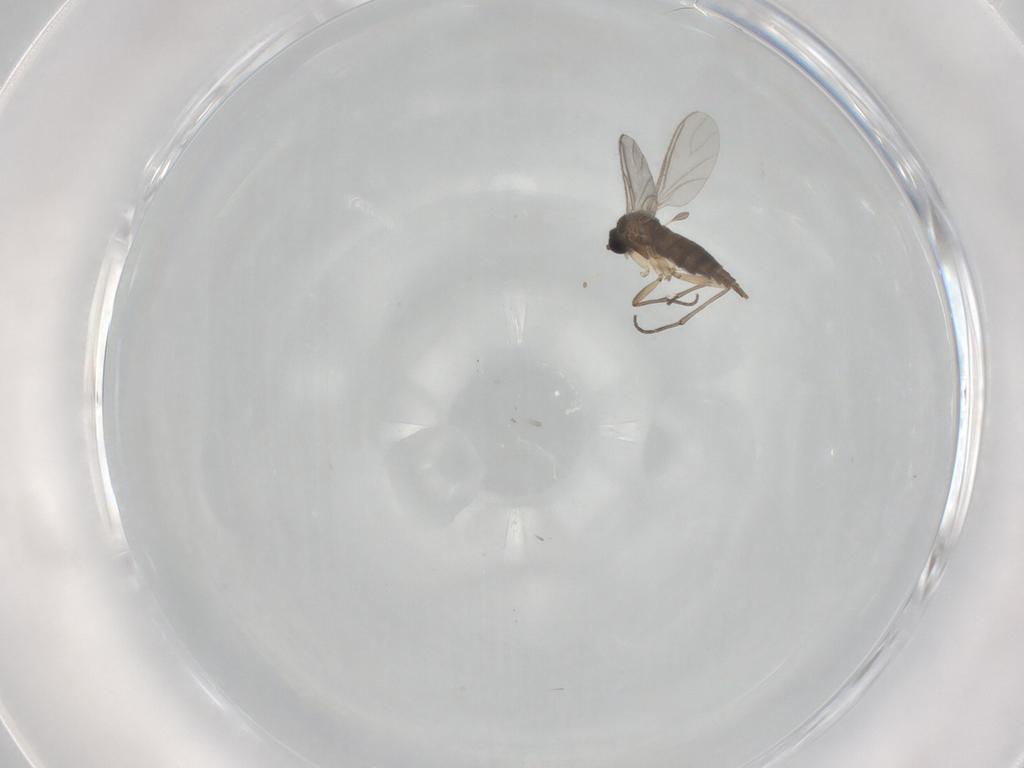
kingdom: Animalia
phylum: Arthropoda
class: Insecta
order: Diptera
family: Sciaridae
